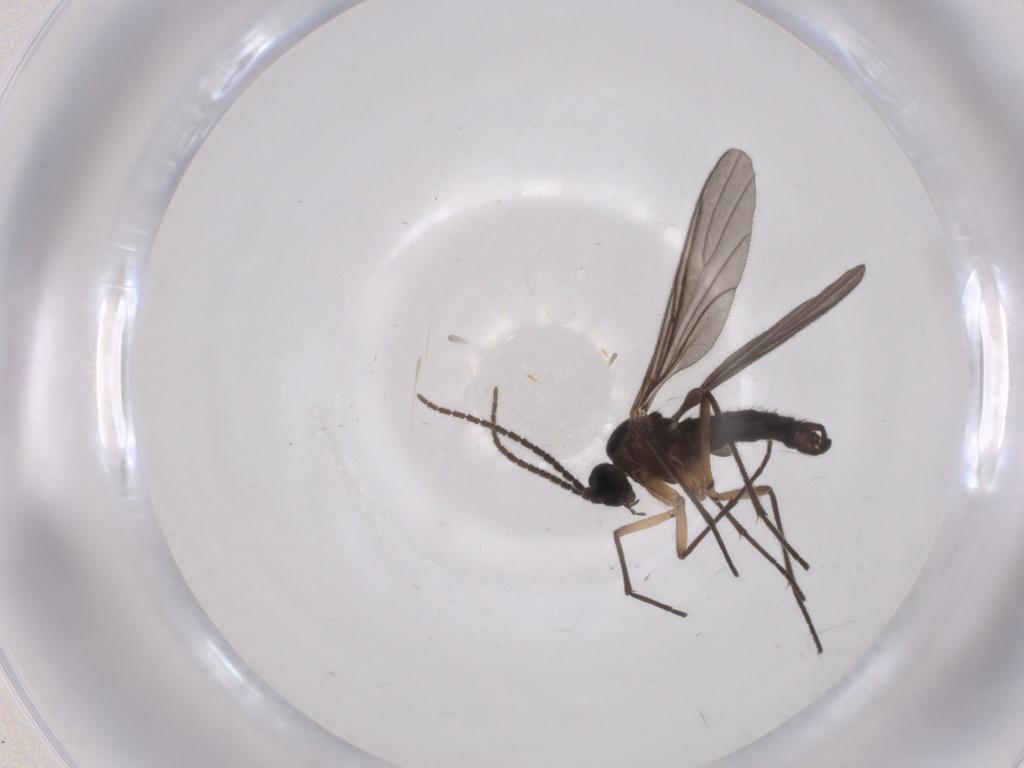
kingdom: Animalia
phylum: Arthropoda
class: Insecta
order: Diptera
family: Sciaridae
